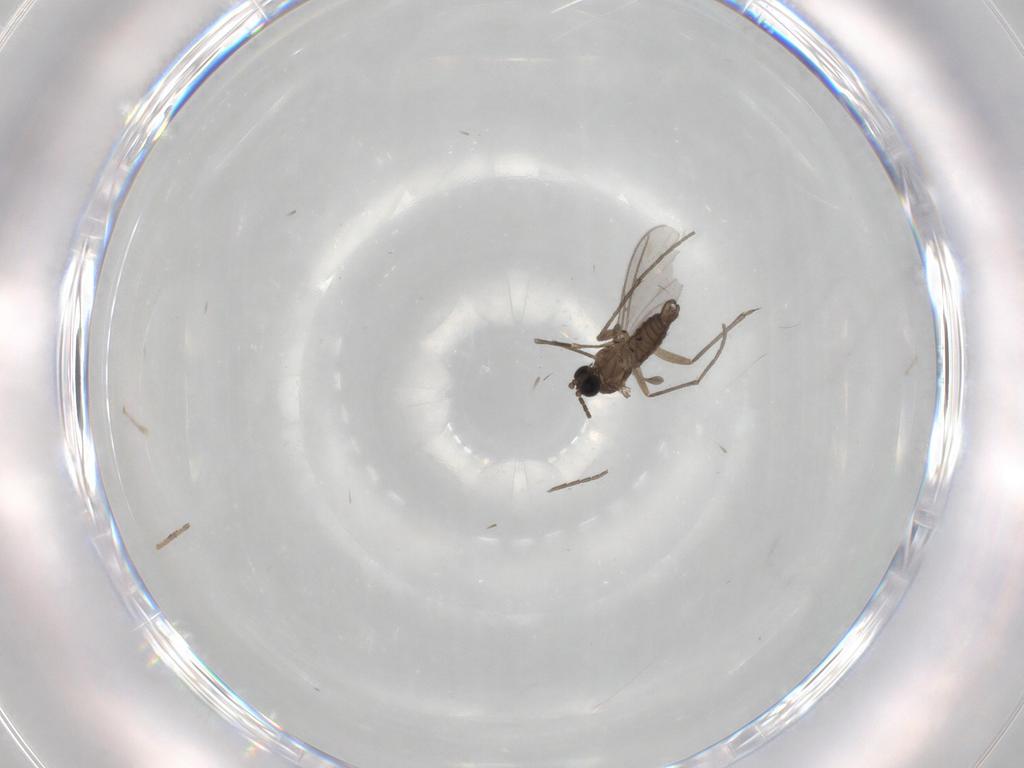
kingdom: Animalia
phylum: Arthropoda
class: Insecta
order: Diptera
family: Sciaridae
